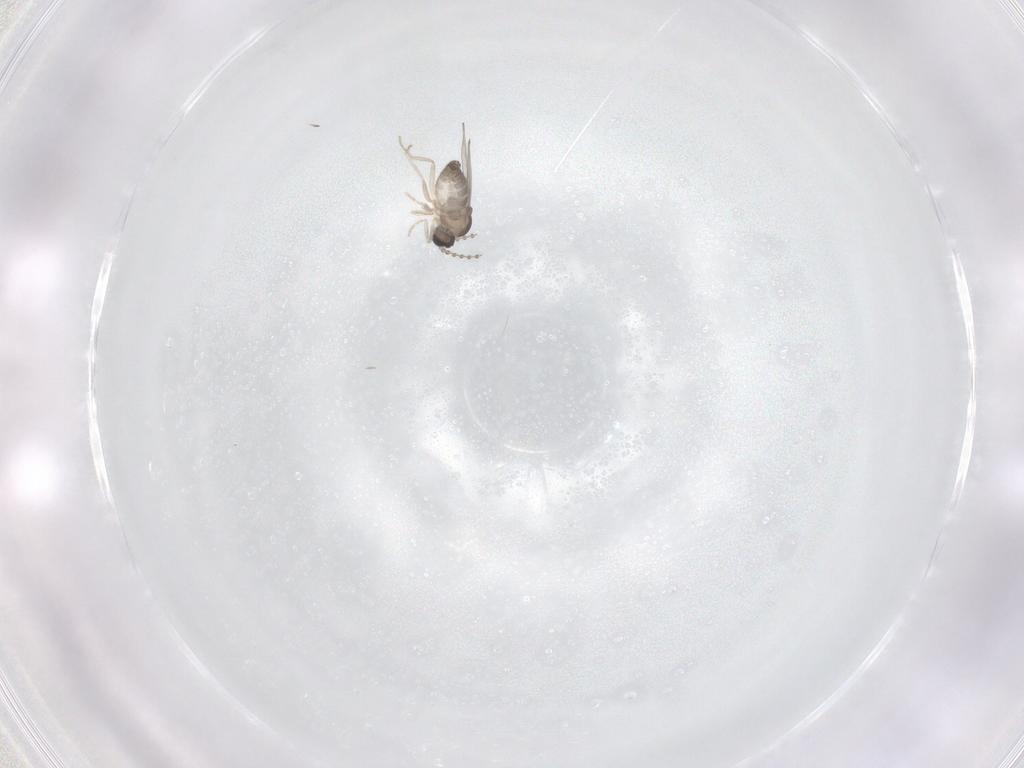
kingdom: Animalia
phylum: Arthropoda
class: Insecta
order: Diptera
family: Cecidomyiidae
